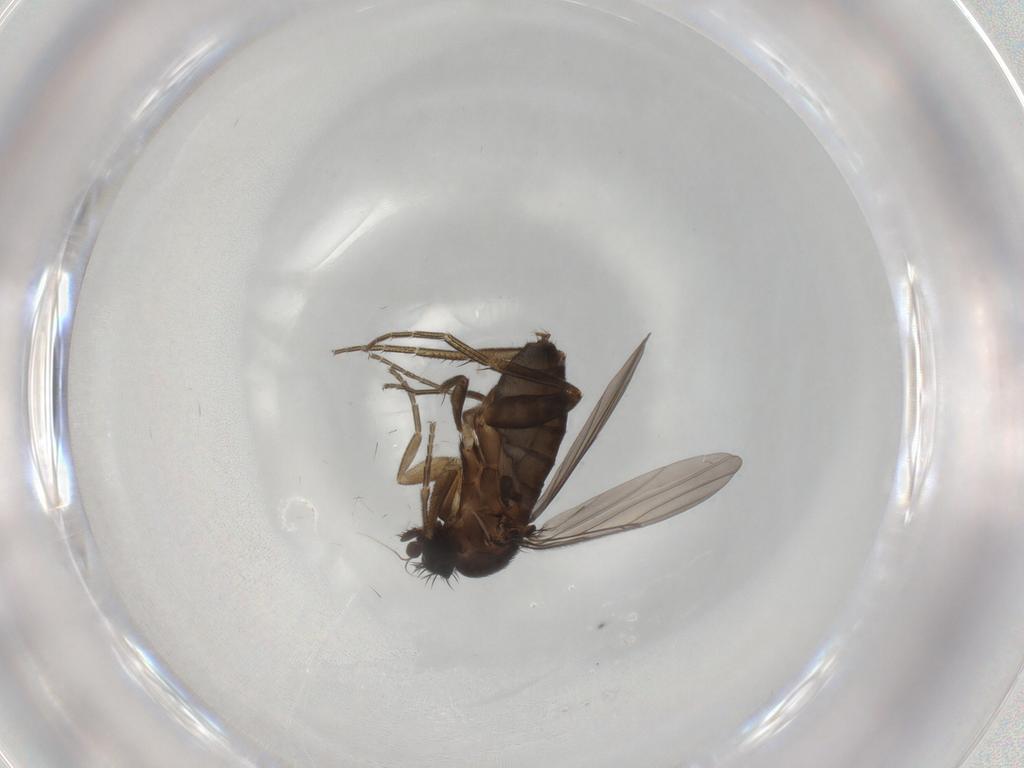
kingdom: Animalia
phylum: Arthropoda
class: Insecta
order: Diptera
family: Phoridae
